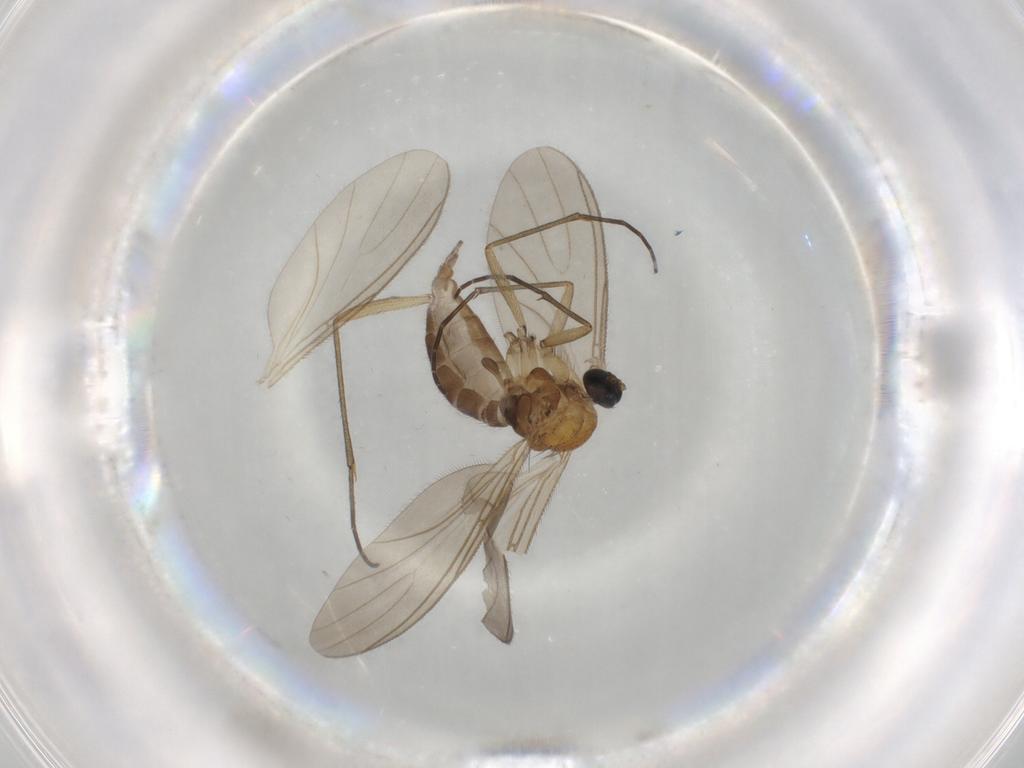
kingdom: Animalia
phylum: Arthropoda
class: Insecta
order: Diptera
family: Sciaridae
